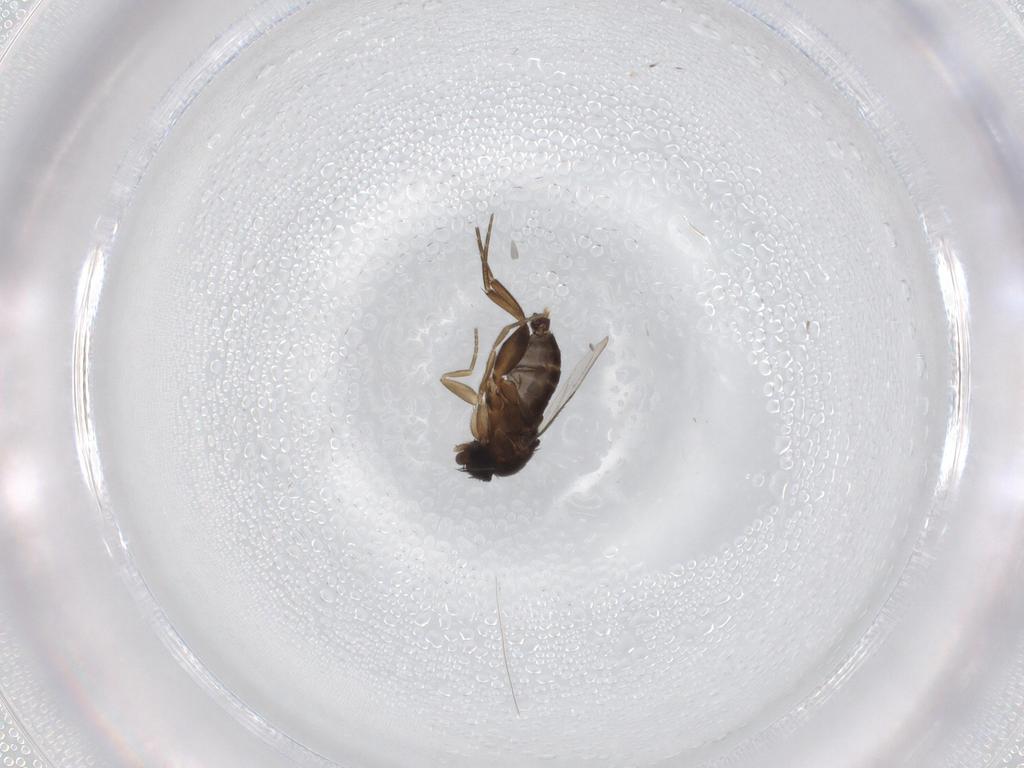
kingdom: Animalia
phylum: Arthropoda
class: Insecta
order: Diptera
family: Phoridae
